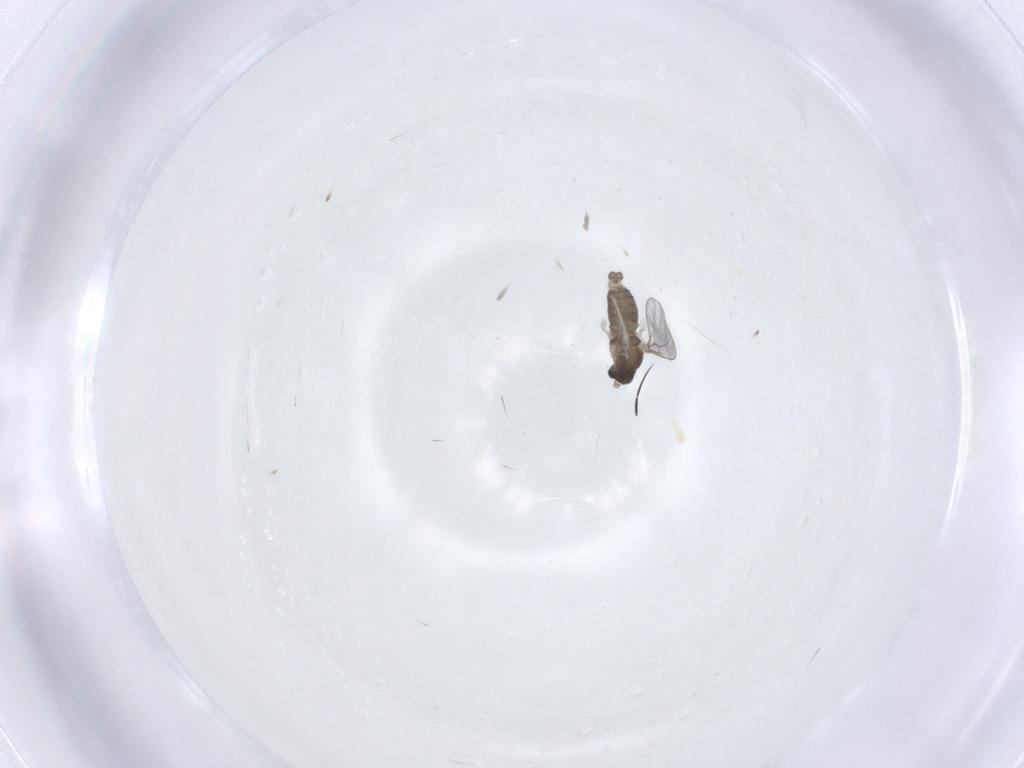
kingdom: Animalia
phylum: Arthropoda
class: Insecta
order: Diptera
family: Cecidomyiidae
